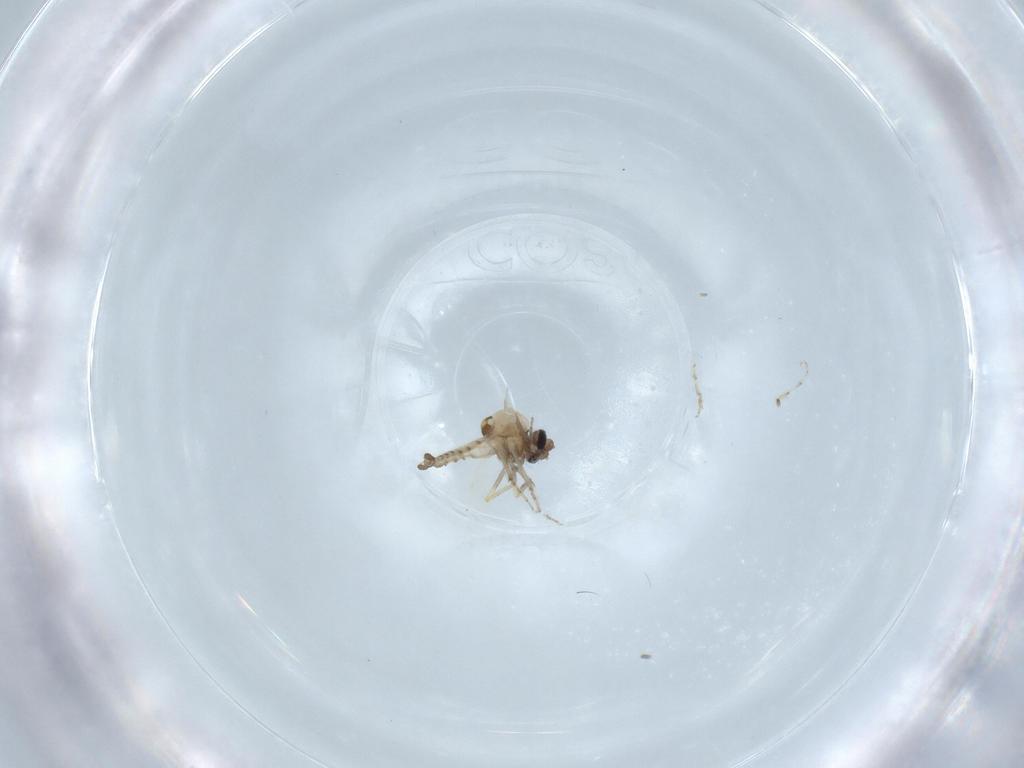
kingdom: Animalia
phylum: Arthropoda
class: Insecta
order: Diptera
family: Ceratopogonidae
